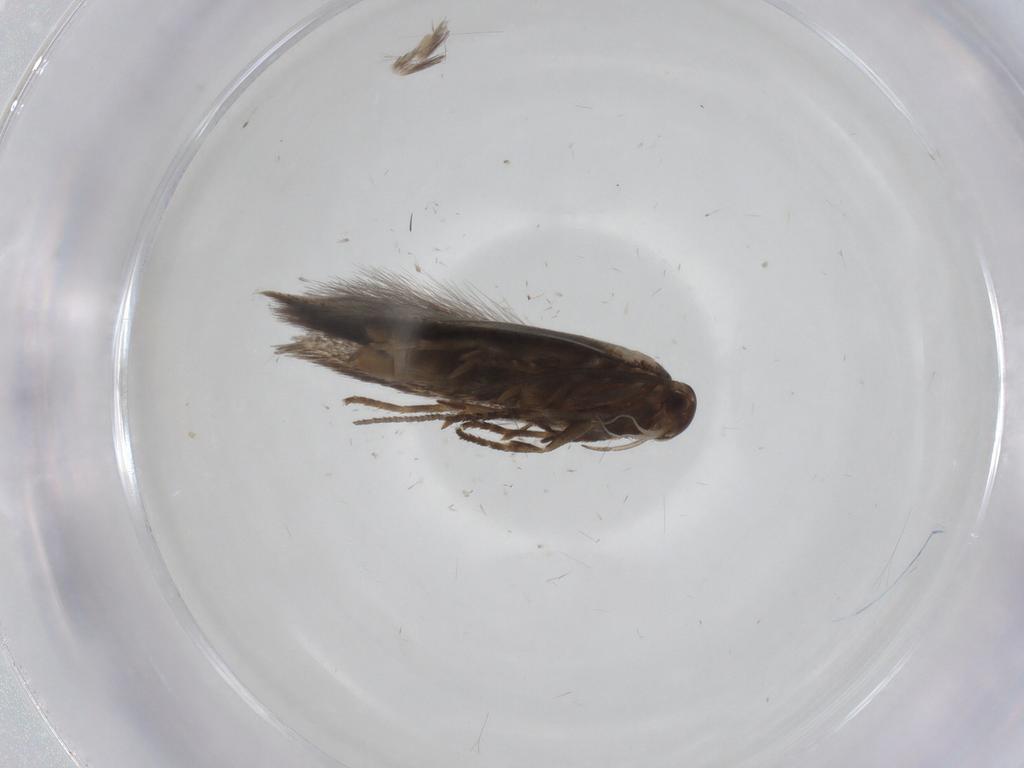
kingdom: Animalia
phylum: Arthropoda
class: Insecta
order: Lepidoptera
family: Elachistidae
